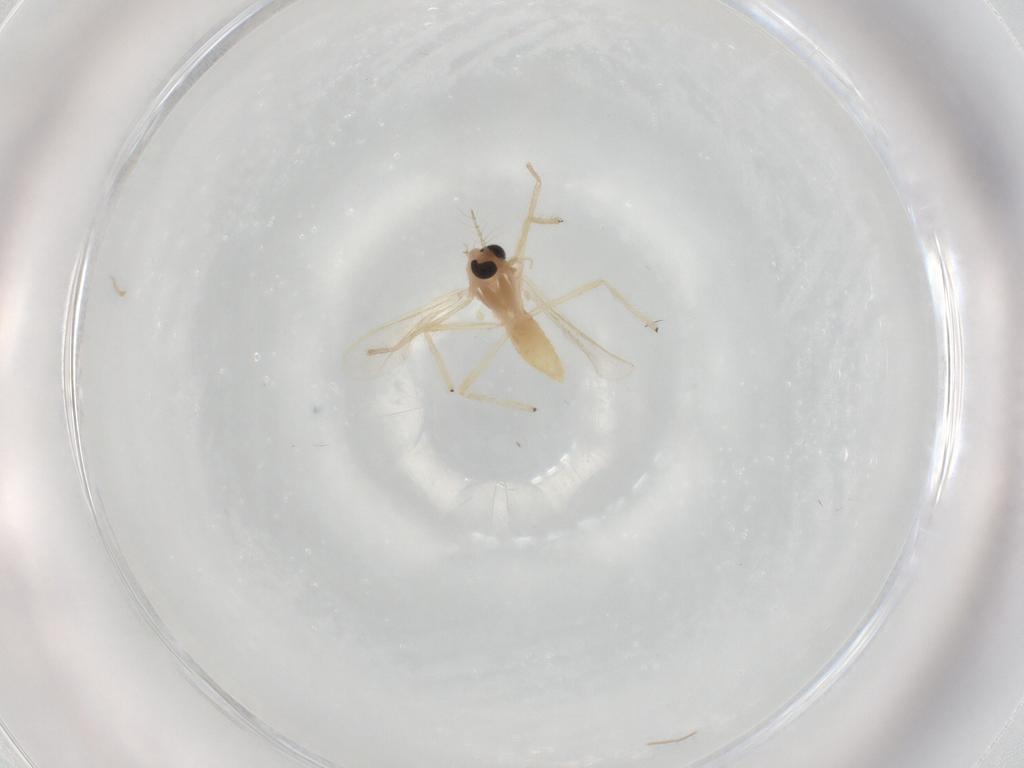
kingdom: Animalia
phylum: Arthropoda
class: Insecta
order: Diptera
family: Chironomidae
